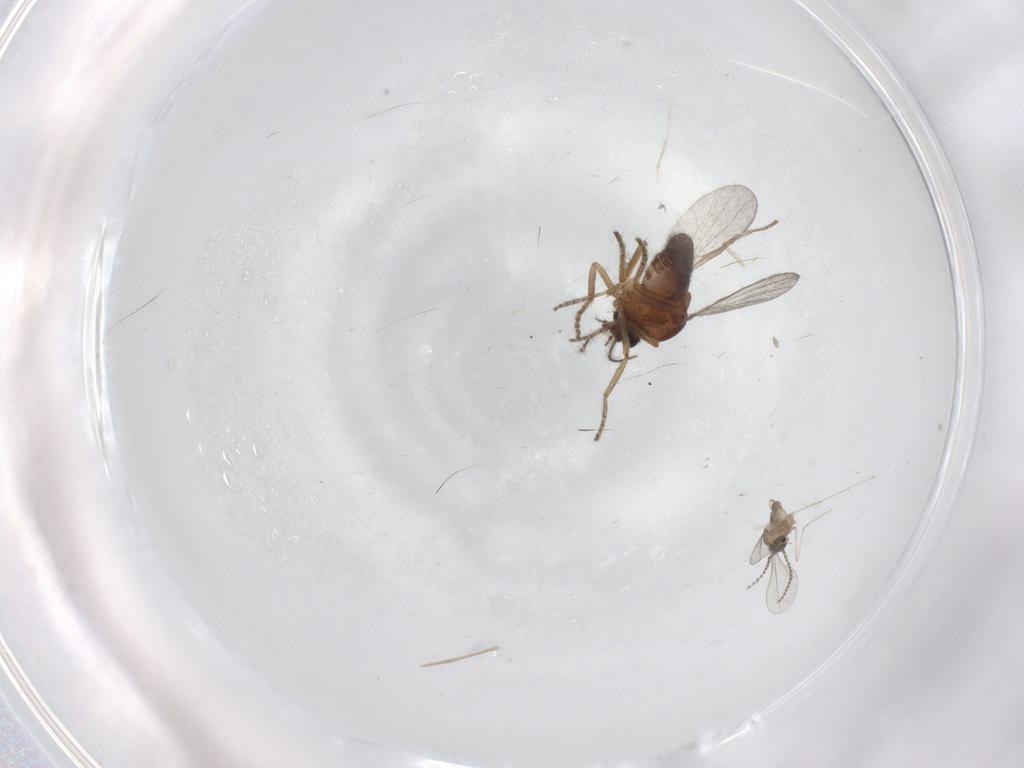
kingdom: Animalia
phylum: Arthropoda
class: Insecta
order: Diptera
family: Cecidomyiidae
